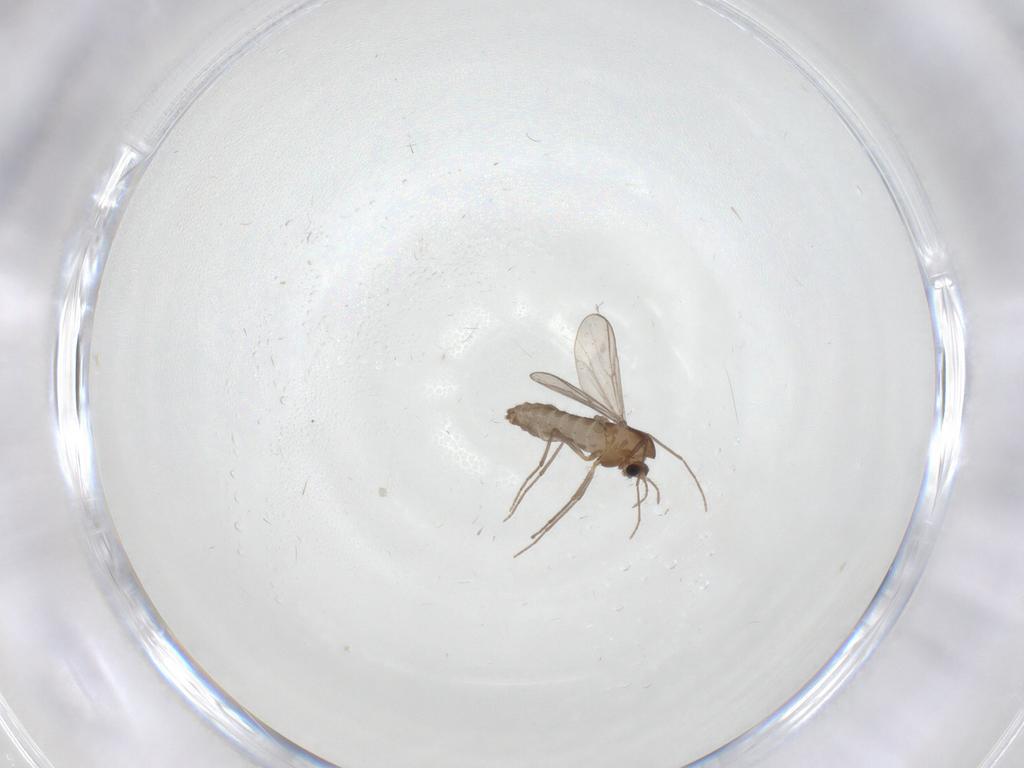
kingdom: Animalia
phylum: Arthropoda
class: Insecta
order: Diptera
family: Chironomidae
